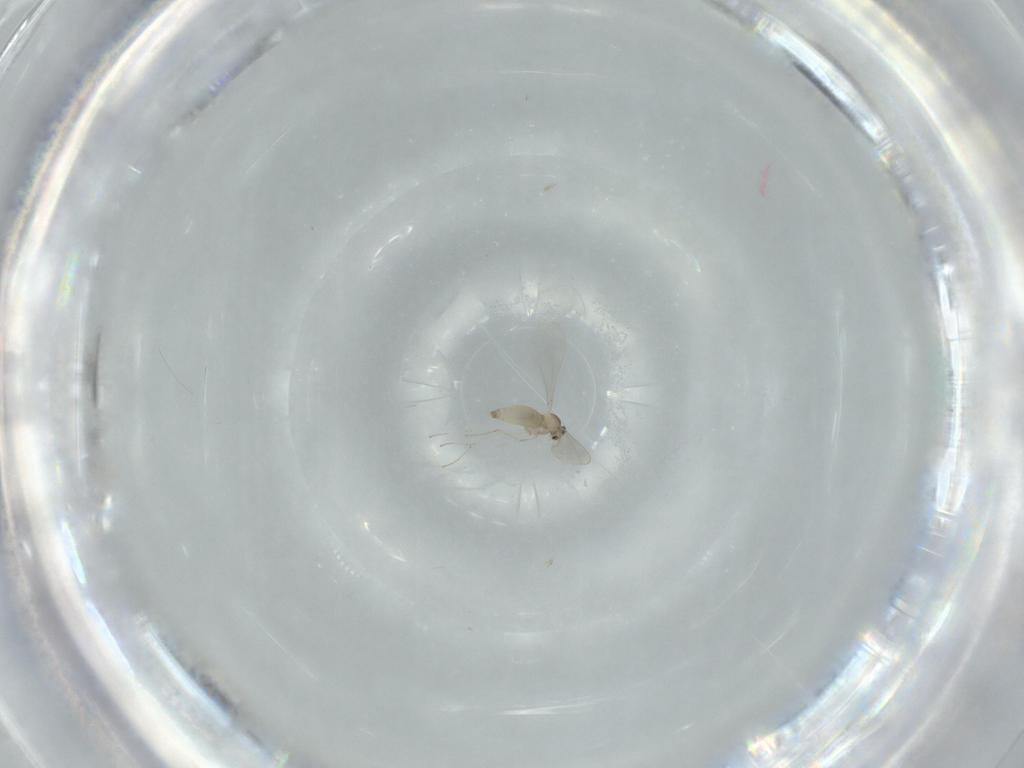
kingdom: Animalia
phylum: Arthropoda
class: Insecta
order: Diptera
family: Cecidomyiidae
